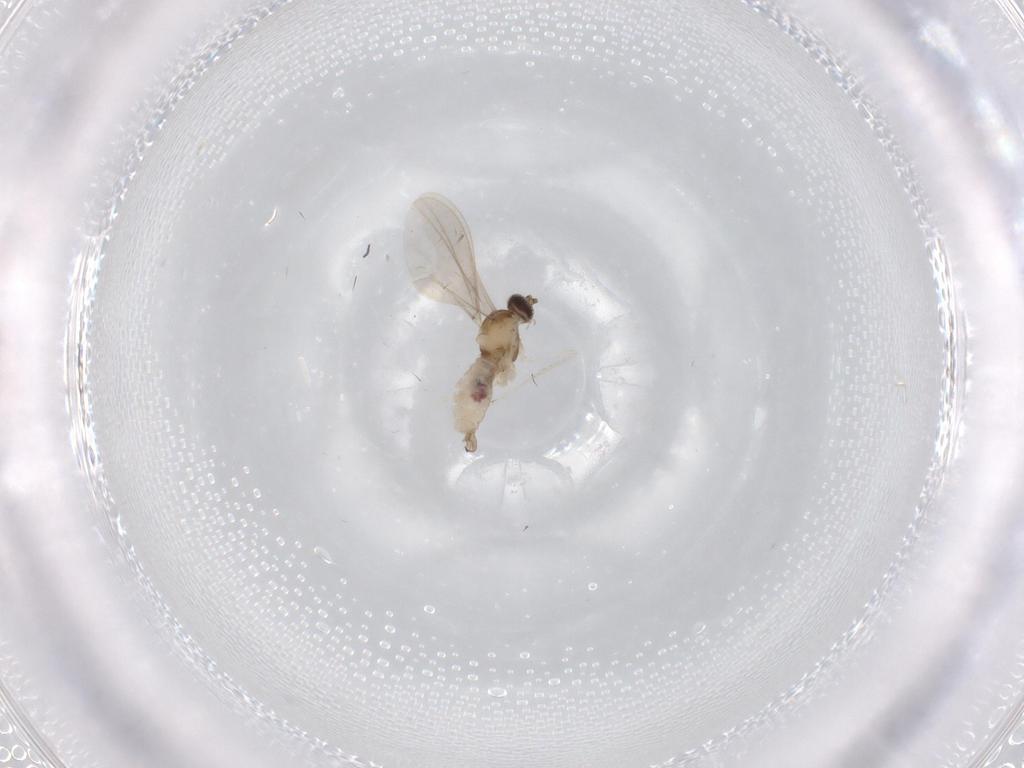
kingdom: Animalia
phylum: Arthropoda
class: Insecta
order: Diptera
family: Cecidomyiidae
